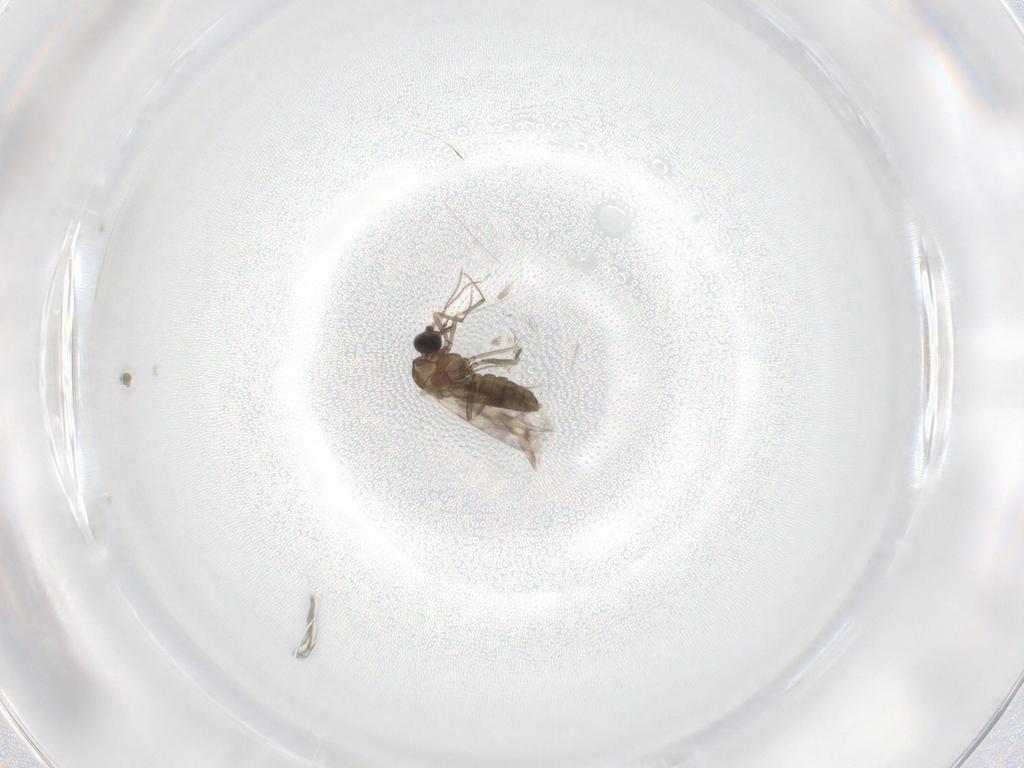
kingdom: Animalia
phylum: Arthropoda
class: Insecta
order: Diptera
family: Ceratopogonidae
